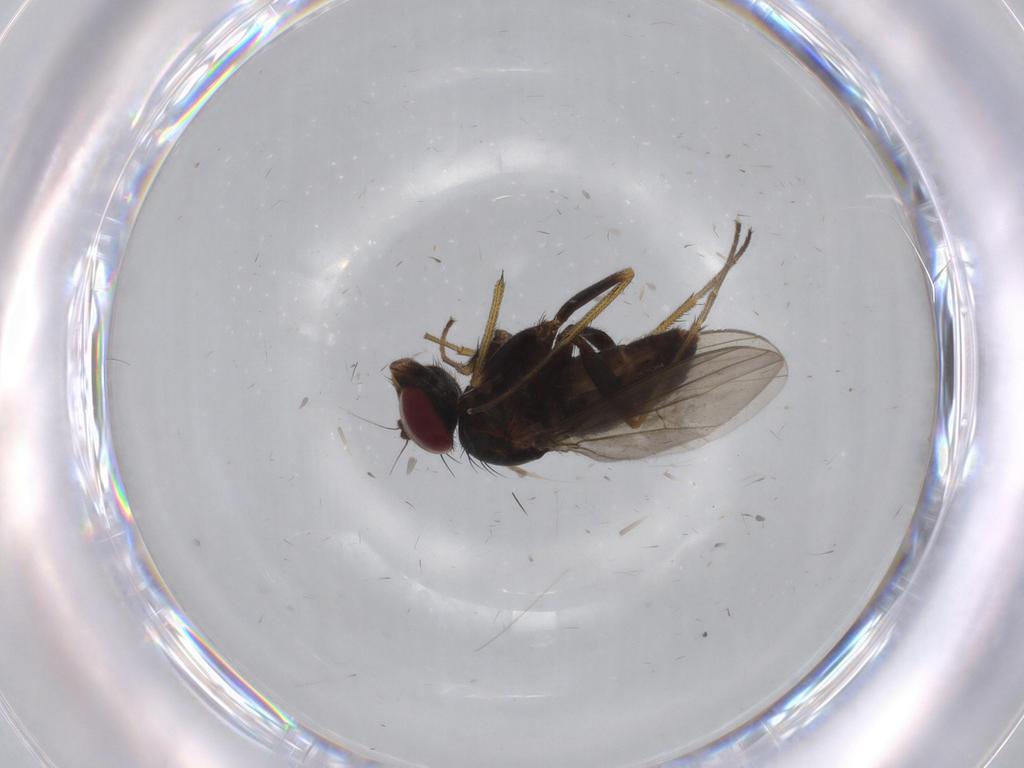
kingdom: Animalia
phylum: Arthropoda
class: Insecta
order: Diptera
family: Dolichopodidae
